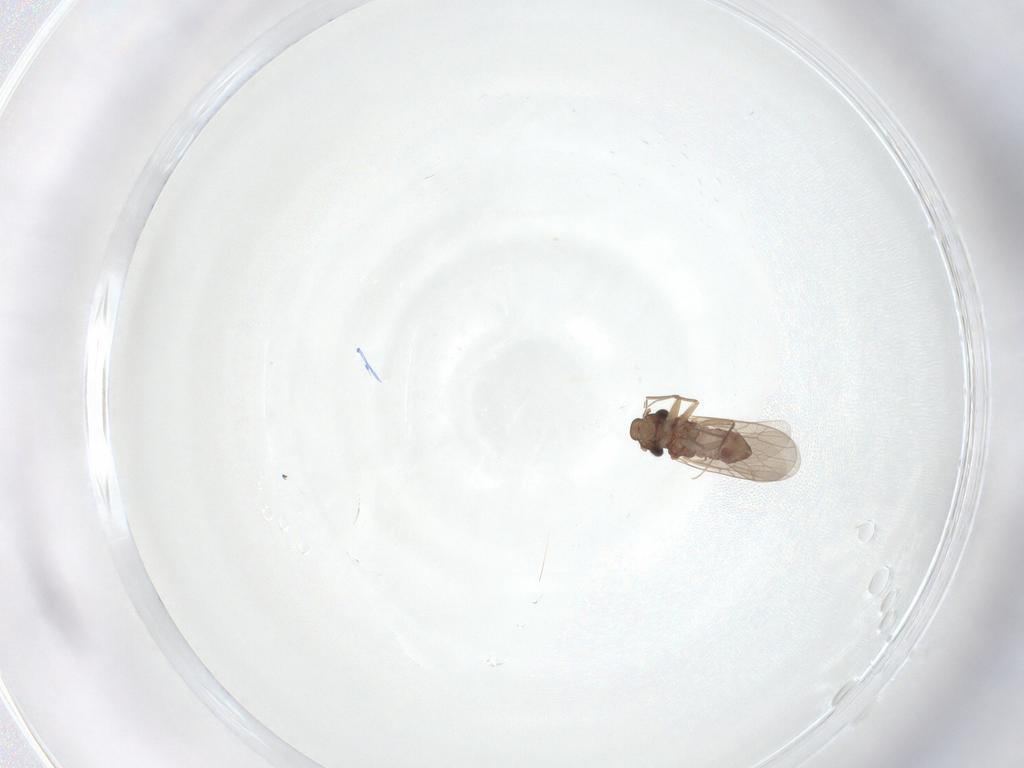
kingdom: Animalia
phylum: Arthropoda
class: Insecta
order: Psocodea
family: Lepidopsocidae
